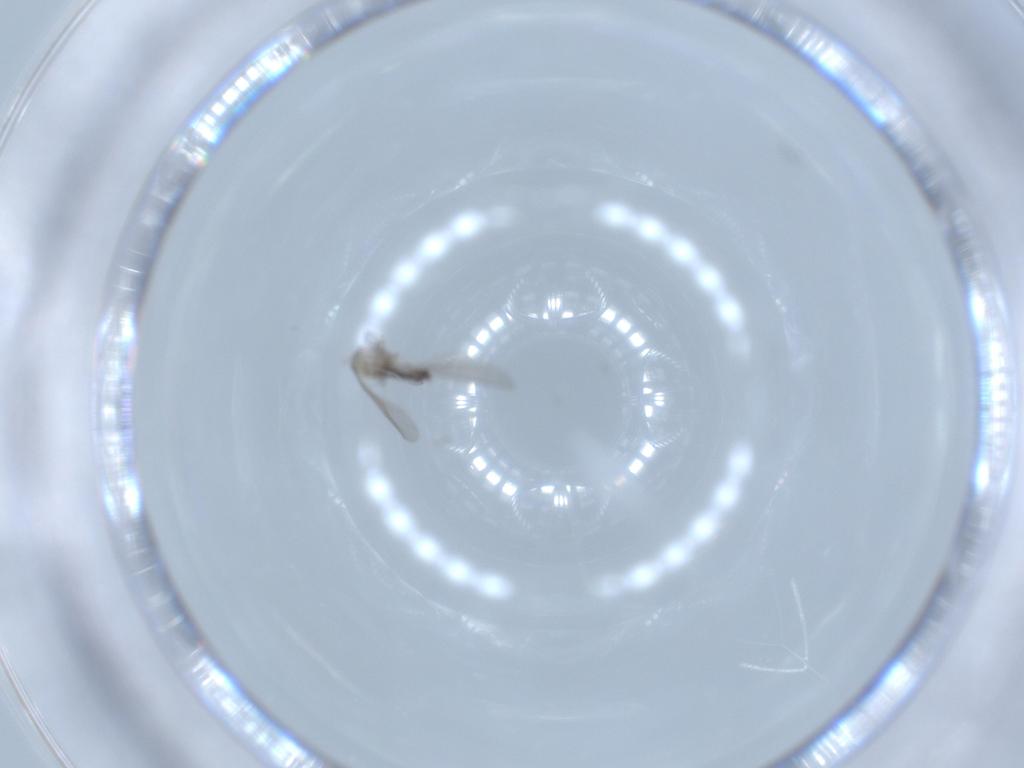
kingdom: Animalia
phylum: Arthropoda
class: Insecta
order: Diptera
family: Cecidomyiidae
